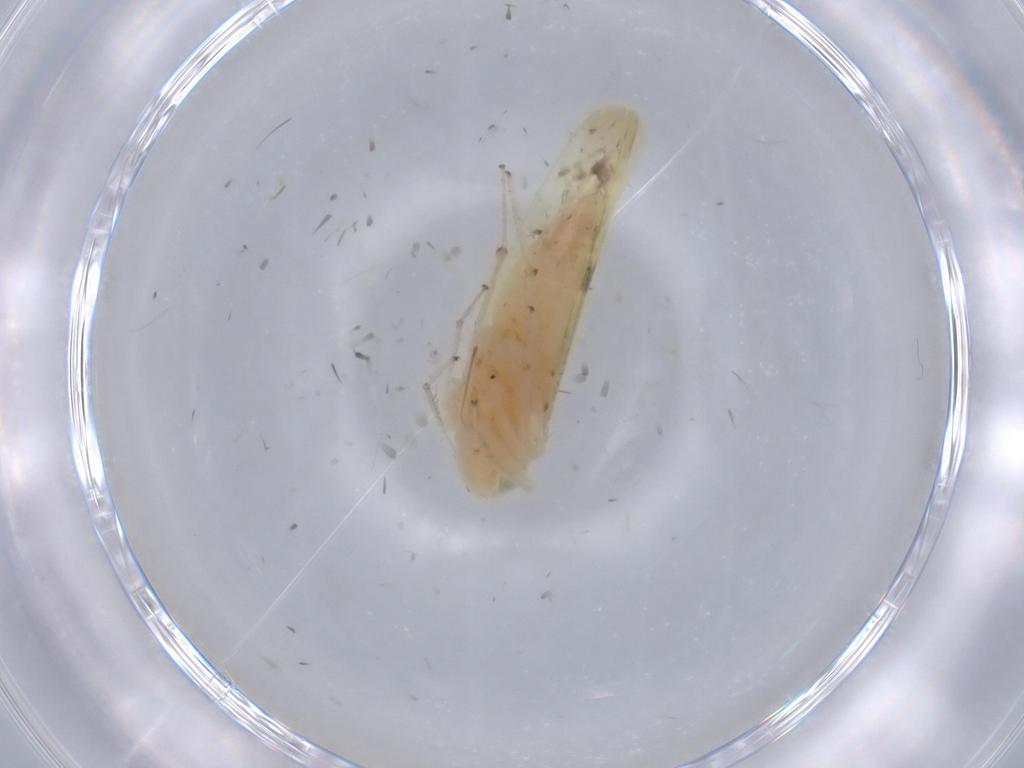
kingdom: Animalia
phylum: Arthropoda
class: Insecta
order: Hemiptera
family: Cicadellidae
